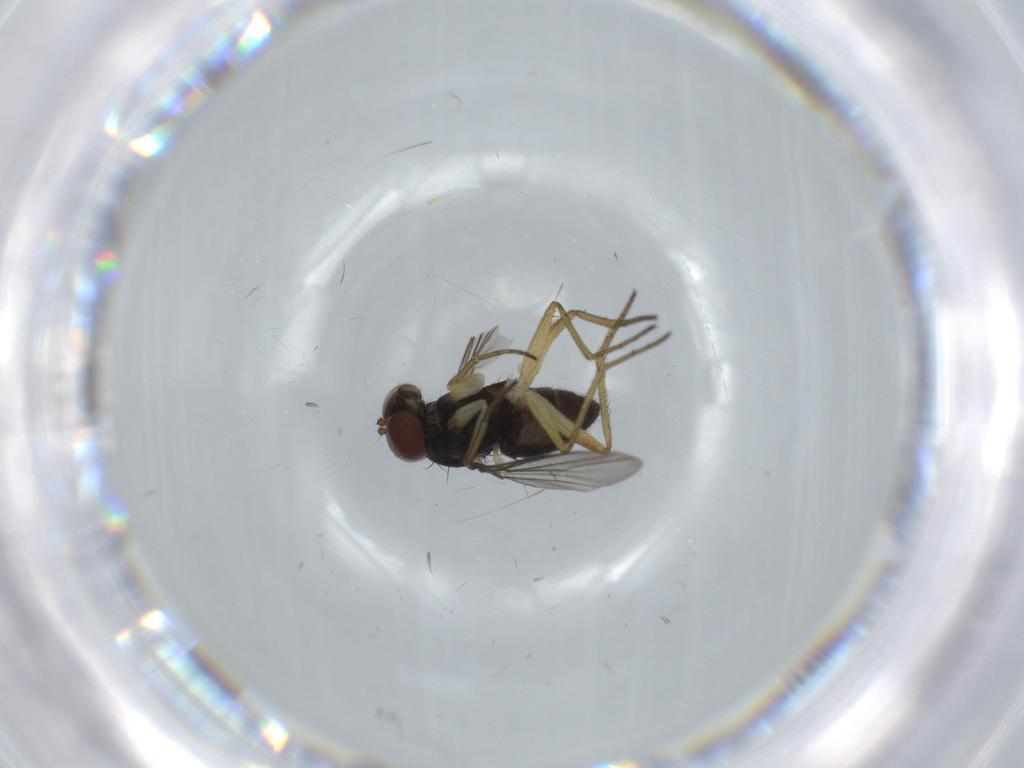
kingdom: Animalia
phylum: Arthropoda
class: Insecta
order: Diptera
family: Dolichopodidae
